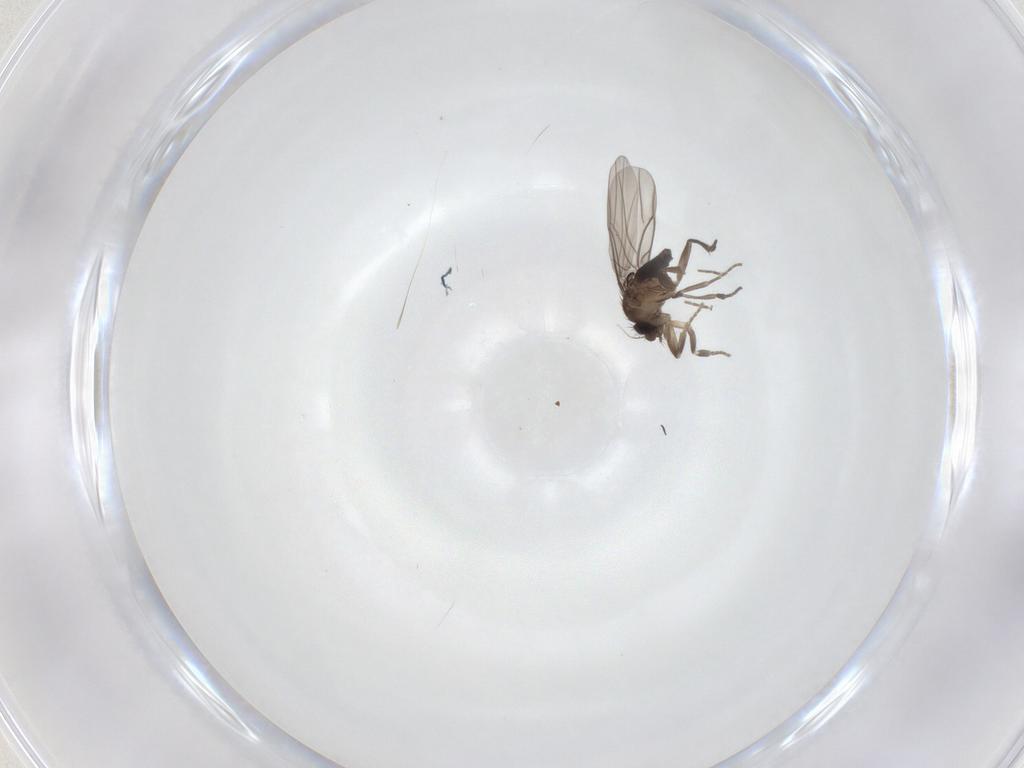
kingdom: Animalia
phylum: Arthropoda
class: Insecta
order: Diptera
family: Phoridae
